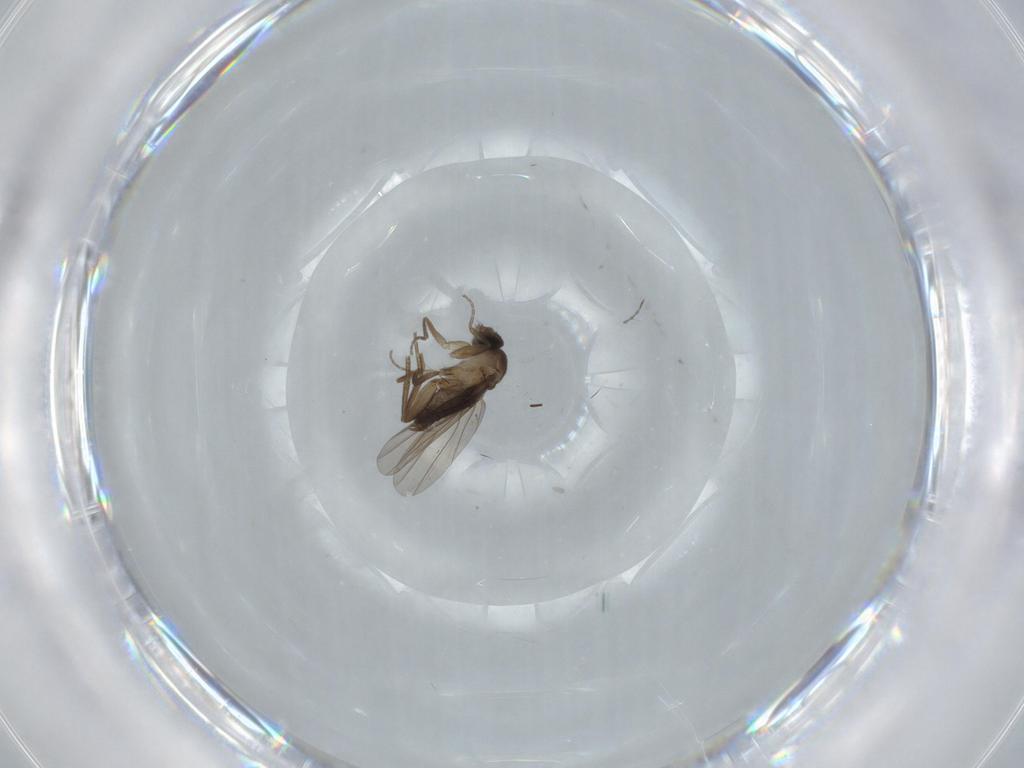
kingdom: Animalia
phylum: Arthropoda
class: Insecta
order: Diptera
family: Phoridae
